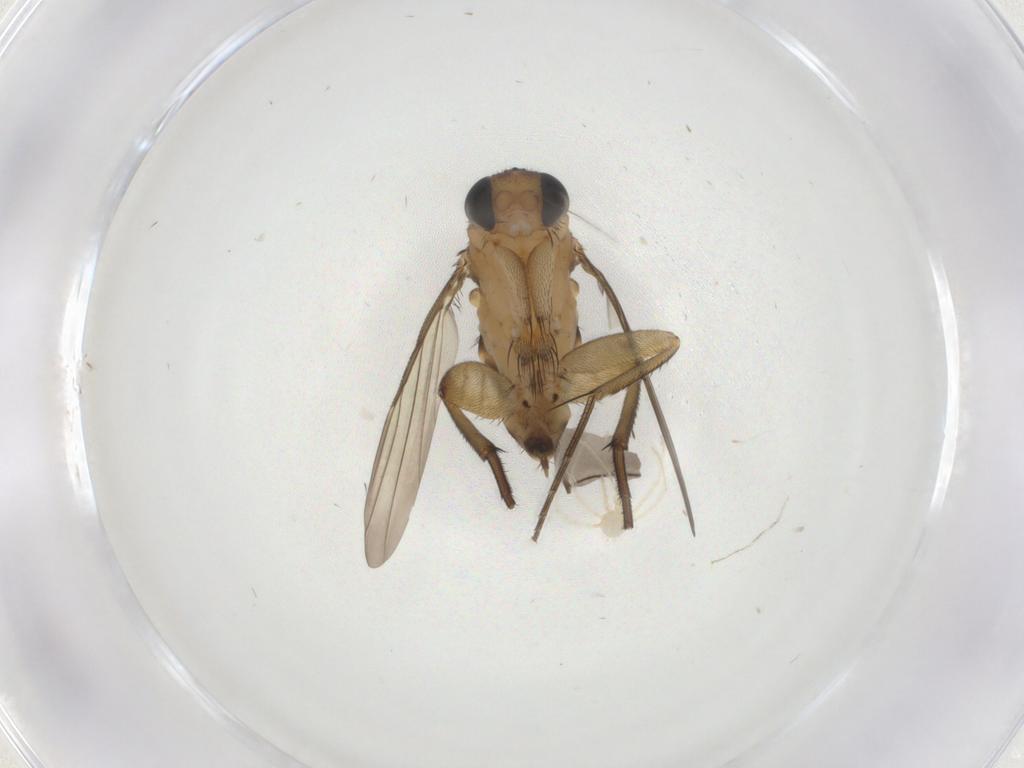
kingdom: Animalia
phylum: Arthropoda
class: Insecta
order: Diptera
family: Phoridae
